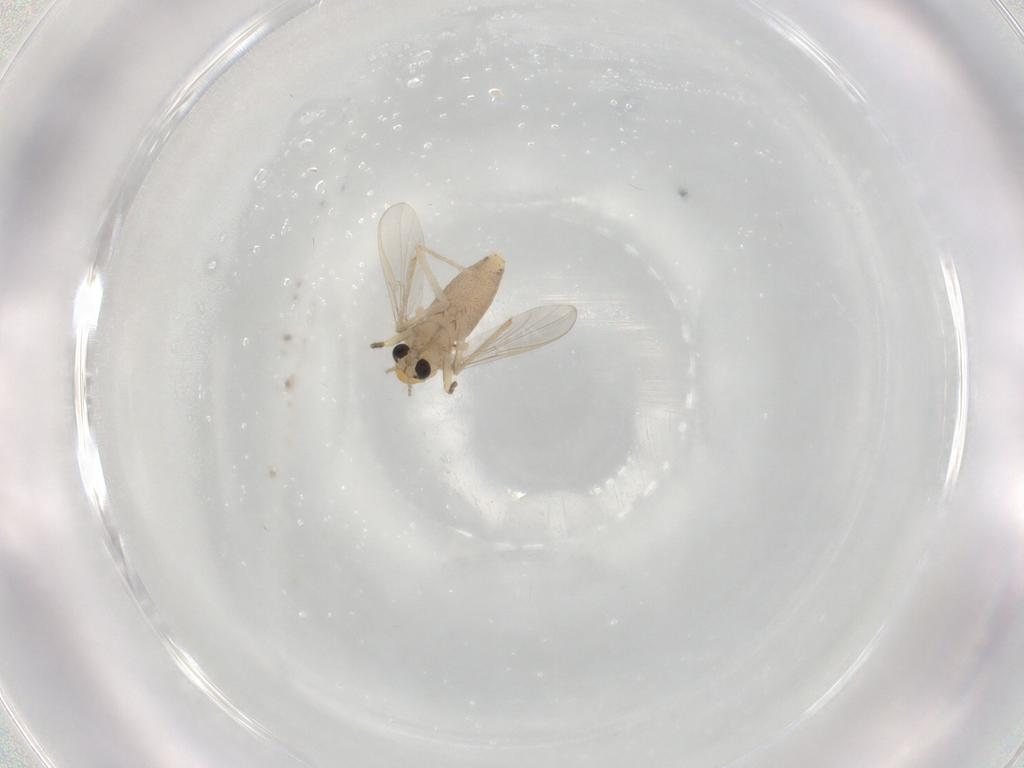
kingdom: Animalia
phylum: Arthropoda
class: Insecta
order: Diptera
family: Chironomidae
